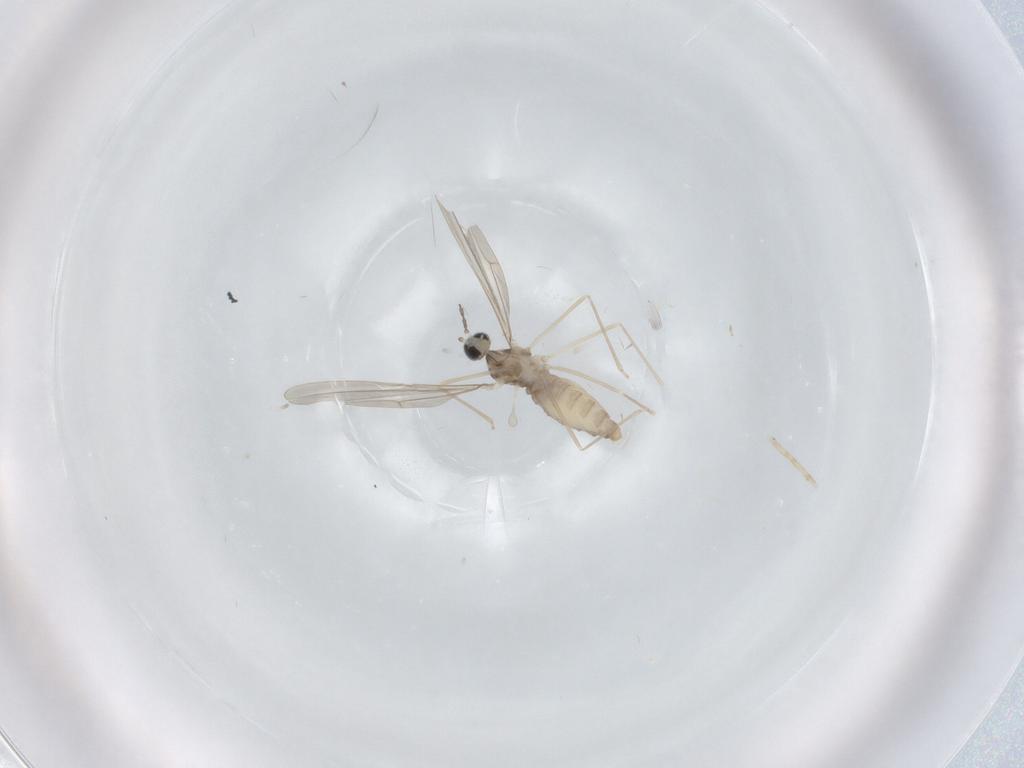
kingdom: Animalia
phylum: Arthropoda
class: Insecta
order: Diptera
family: Cecidomyiidae
